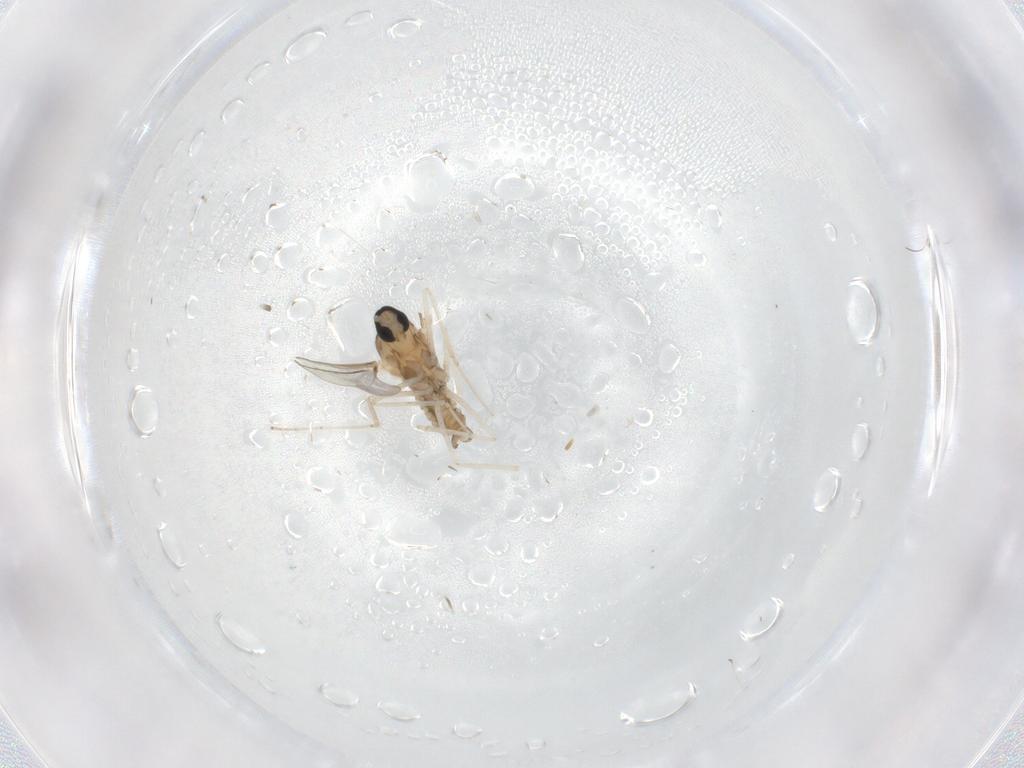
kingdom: Animalia
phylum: Arthropoda
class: Insecta
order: Diptera
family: Cecidomyiidae
